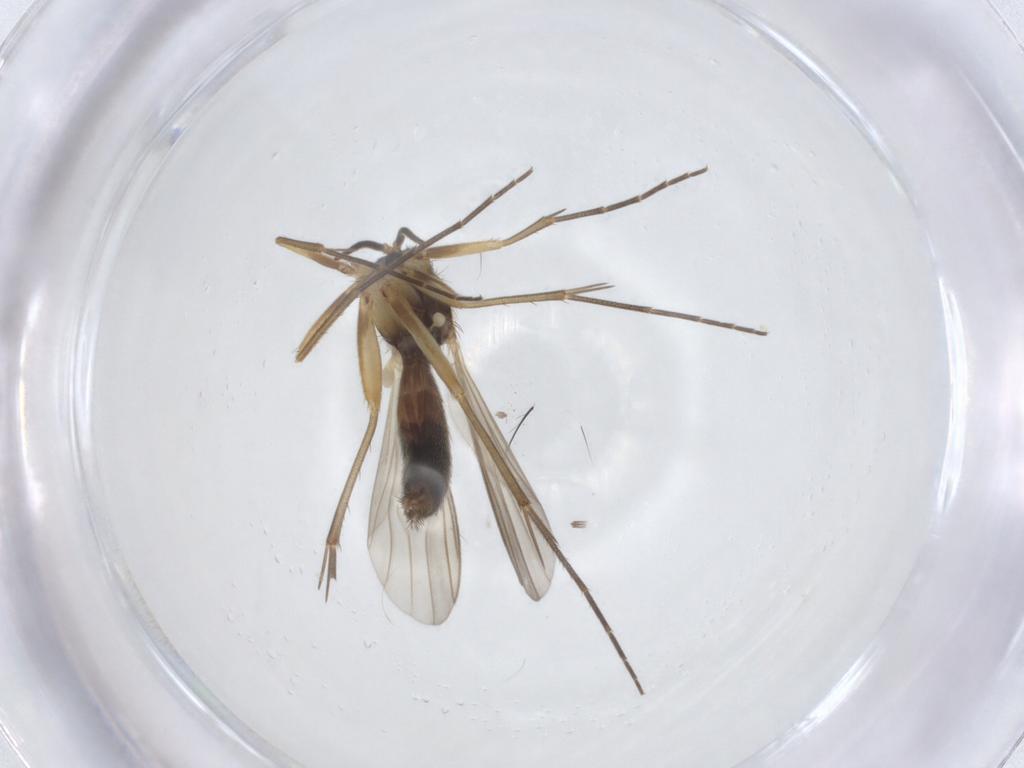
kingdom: Animalia
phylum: Arthropoda
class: Insecta
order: Diptera
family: Mycetophilidae
